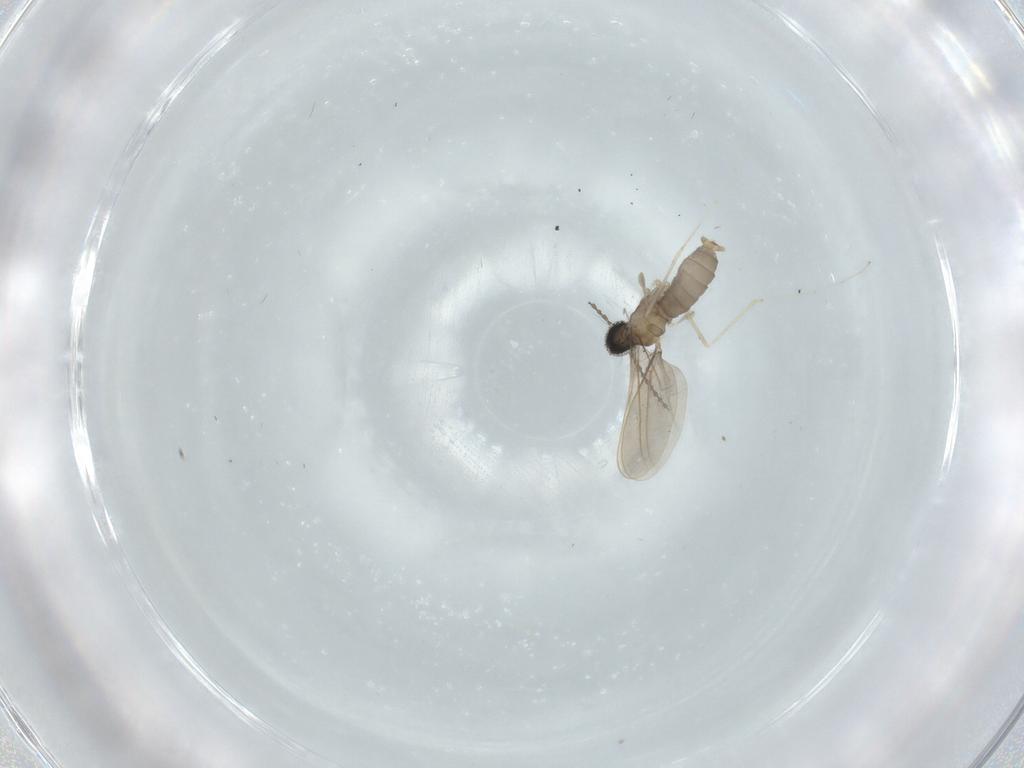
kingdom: Animalia
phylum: Arthropoda
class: Insecta
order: Diptera
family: Cecidomyiidae
